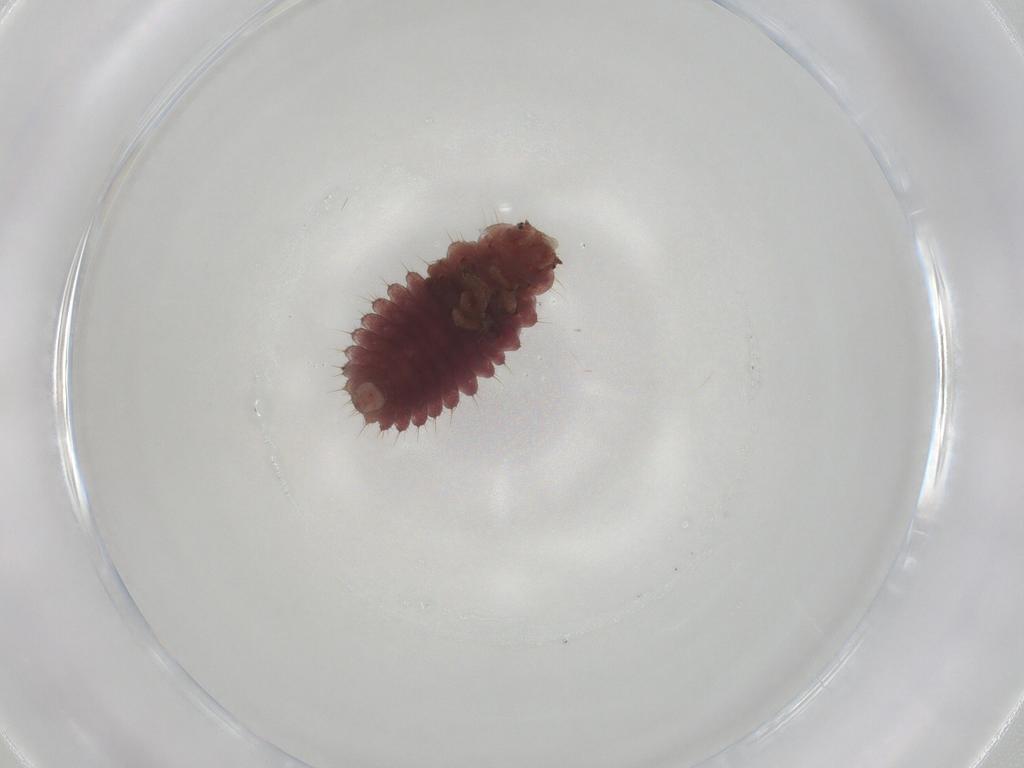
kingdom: Animalia
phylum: Arthropoda
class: Insecta
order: Coleoptera
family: Coccinellidae
